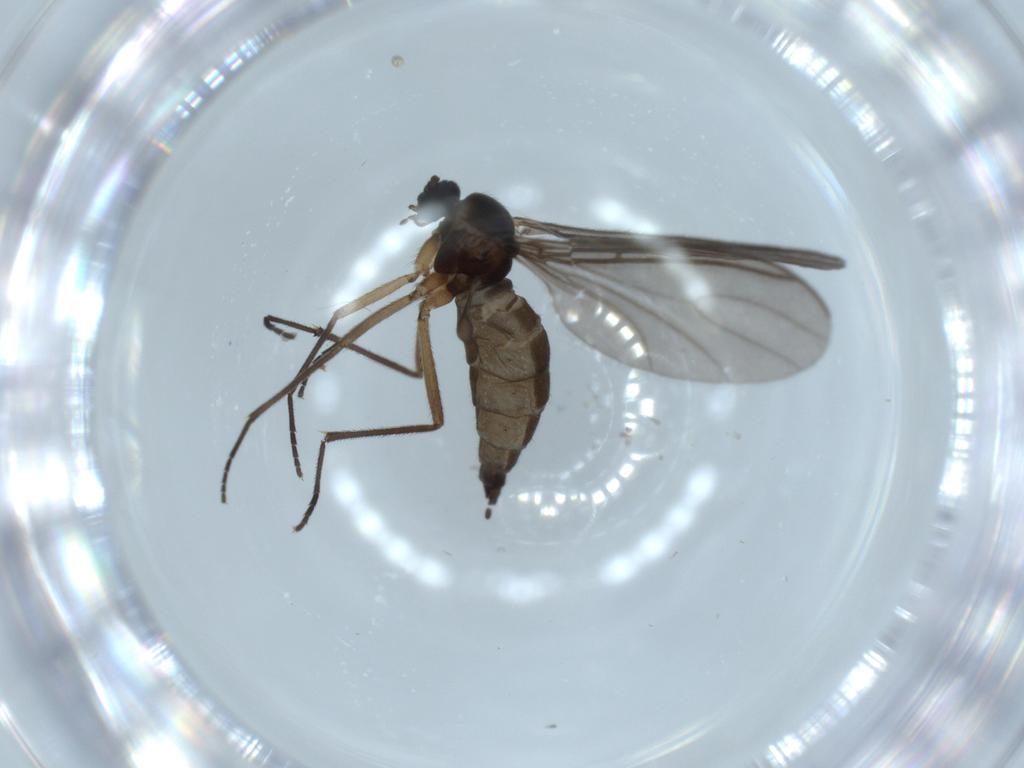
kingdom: Animalia
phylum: Arthropoda
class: Insecta
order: Diptera
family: Sciaridae
